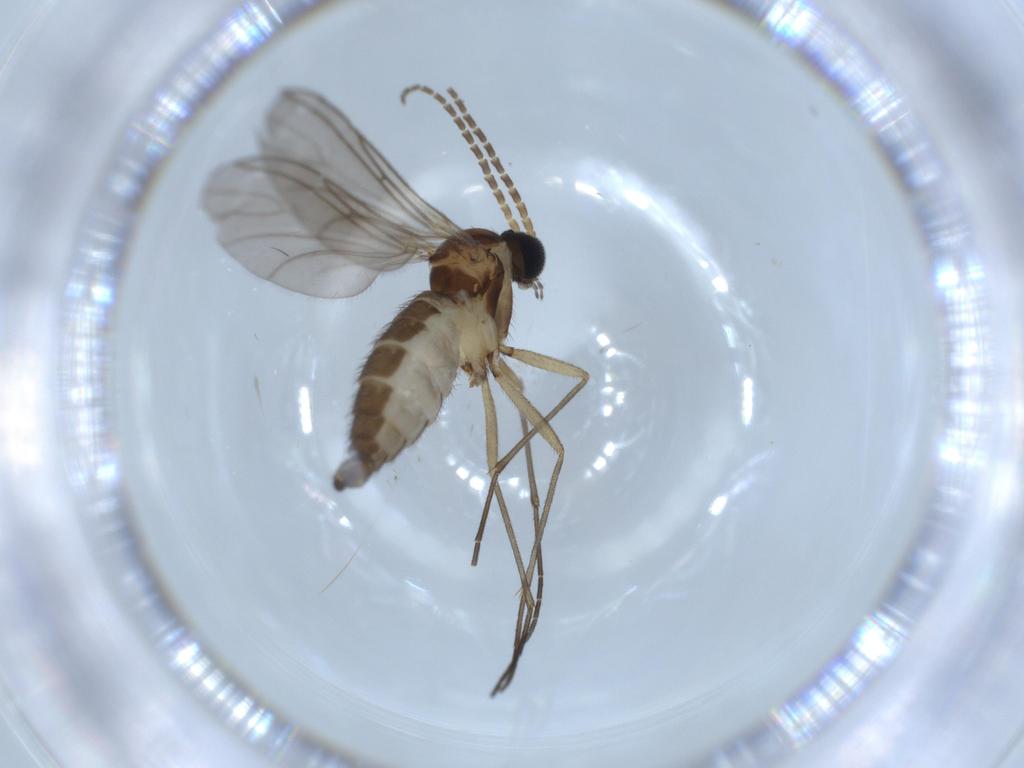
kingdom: Animalia
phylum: Arthropoda
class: Insecta
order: Diptera
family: Sciaridae
